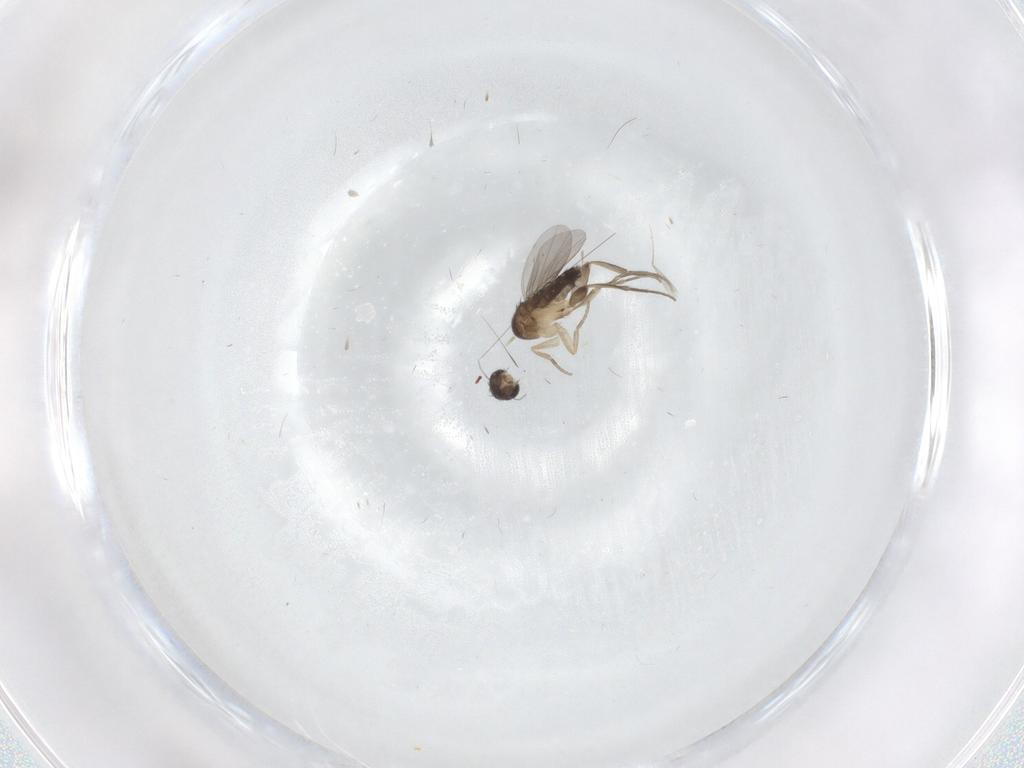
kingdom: Animalia
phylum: Arthropoda
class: Insecta
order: Diptera
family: Phoridae
